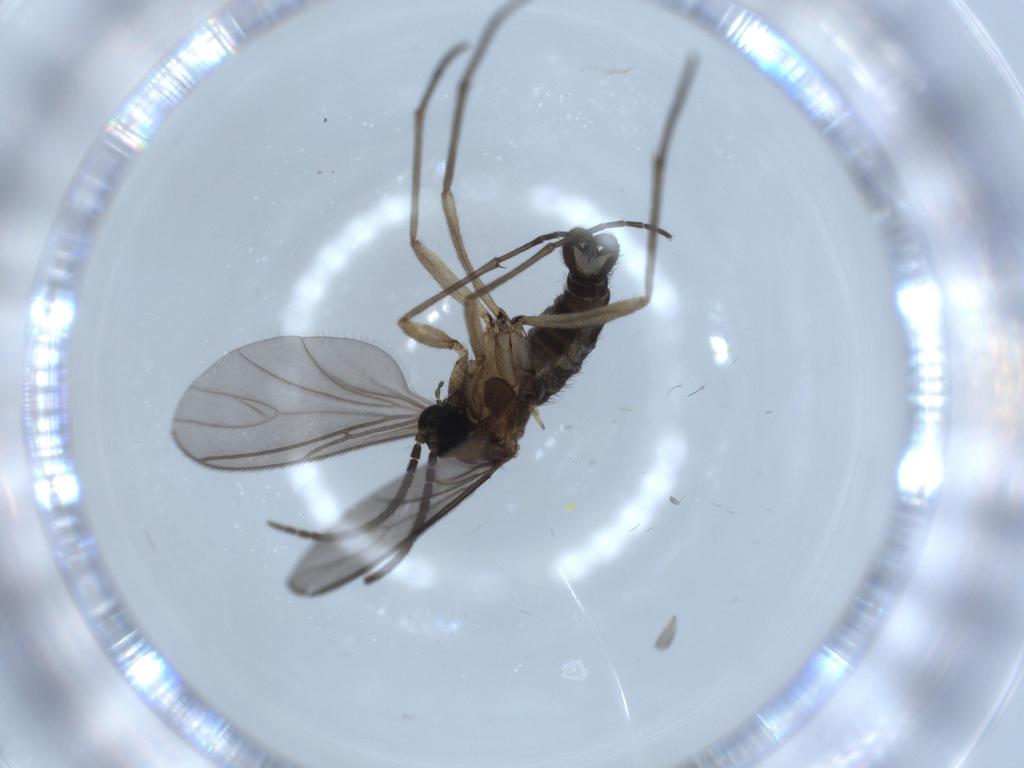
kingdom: Animalia
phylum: Arthropoda
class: Insecta
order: Diptera
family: Sciaridae
